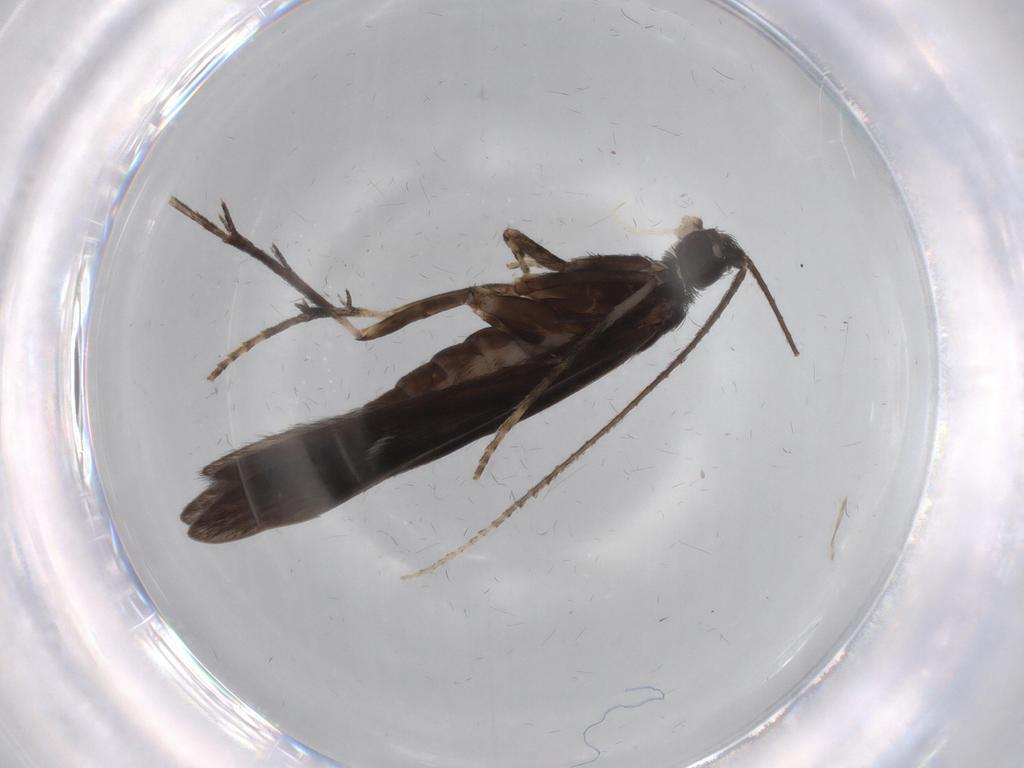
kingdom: Animalia
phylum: Arthropoda
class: Insecta
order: Trichoptera
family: Xiphocentronidae
